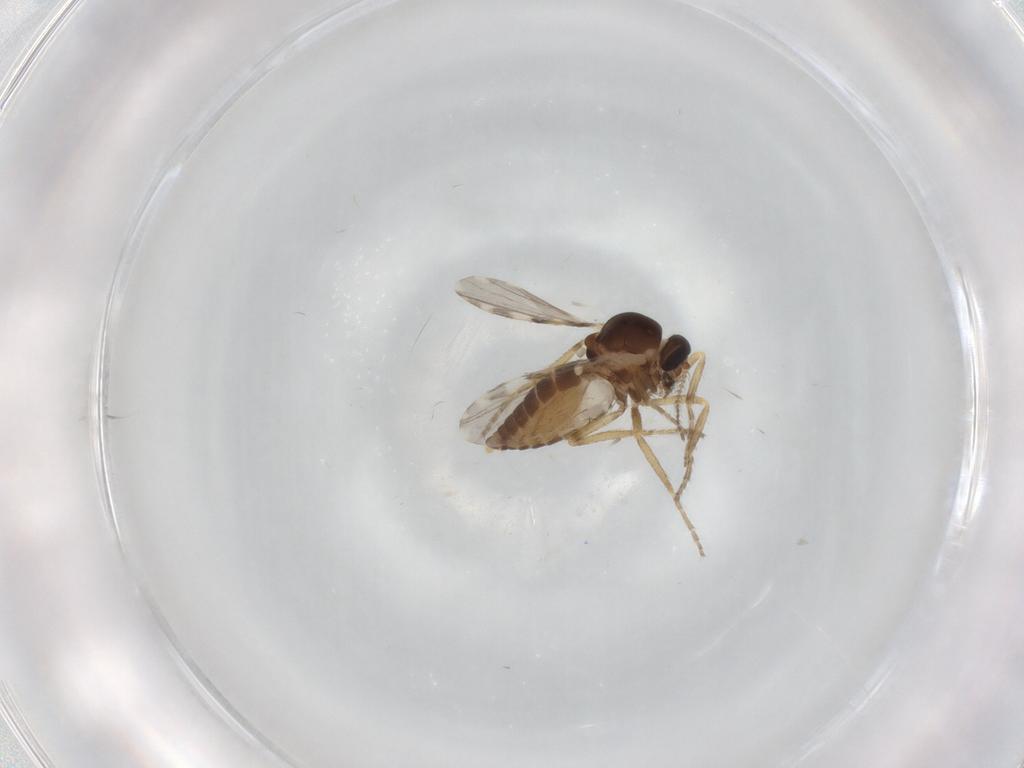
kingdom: Animalia
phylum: Arthropoda
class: Insecta
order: Diptera
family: Ceratopogonidae
